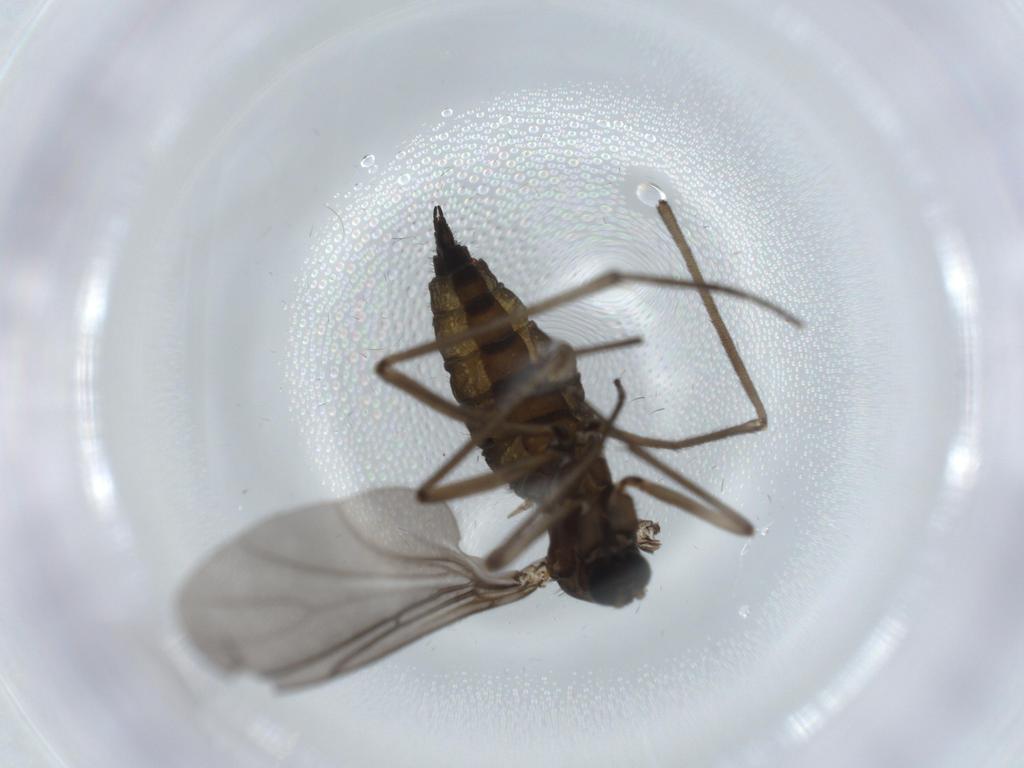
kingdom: Animalia
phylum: Arthropoda
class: Insecta
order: Diptera
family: Sciaridae
